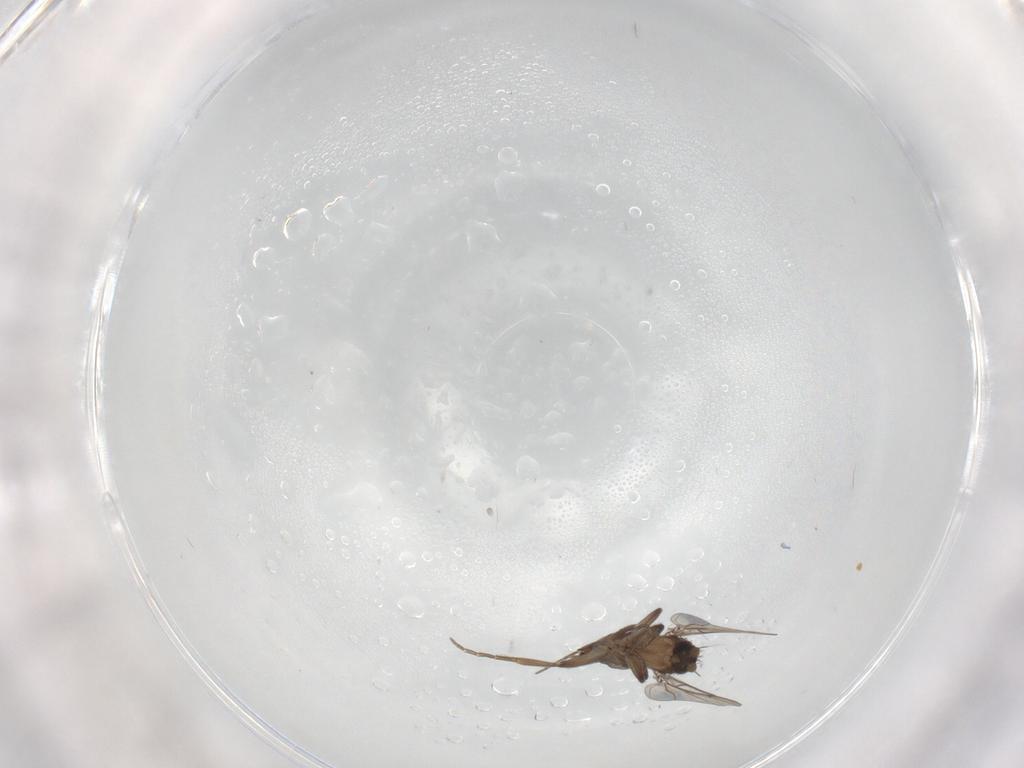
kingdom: Animalia
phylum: Arthropoda
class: Insecta
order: Diptera
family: Phoridae
